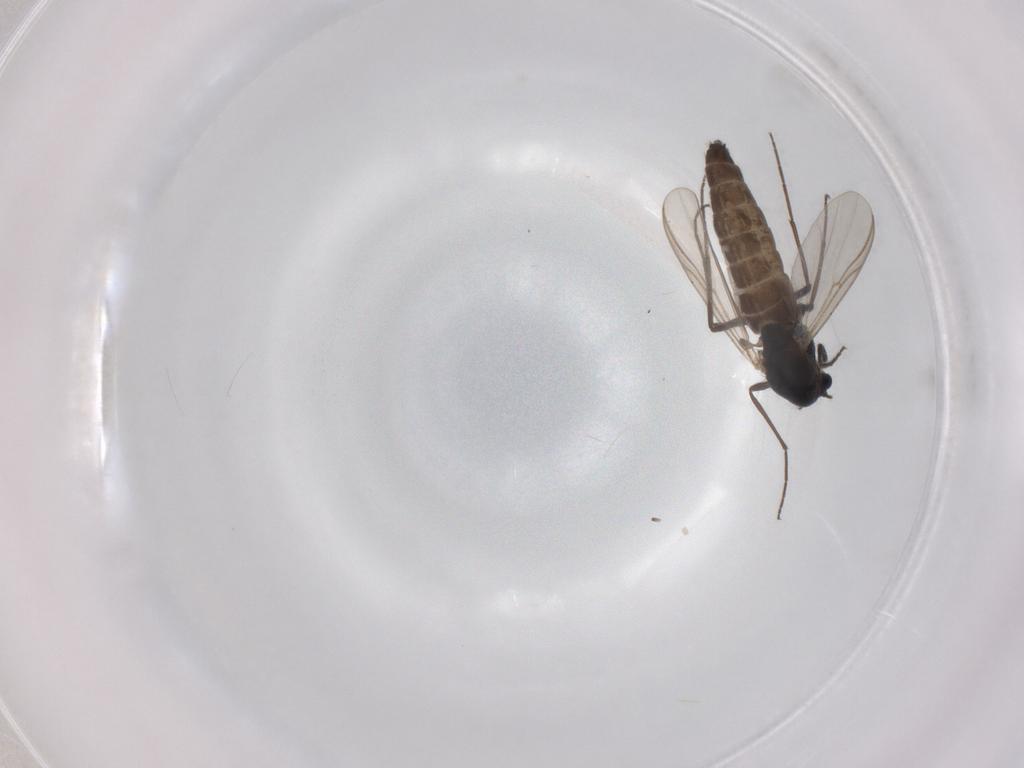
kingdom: Animalia
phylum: Arthropoda
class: Insecta
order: Diptera
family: Chironomidae
